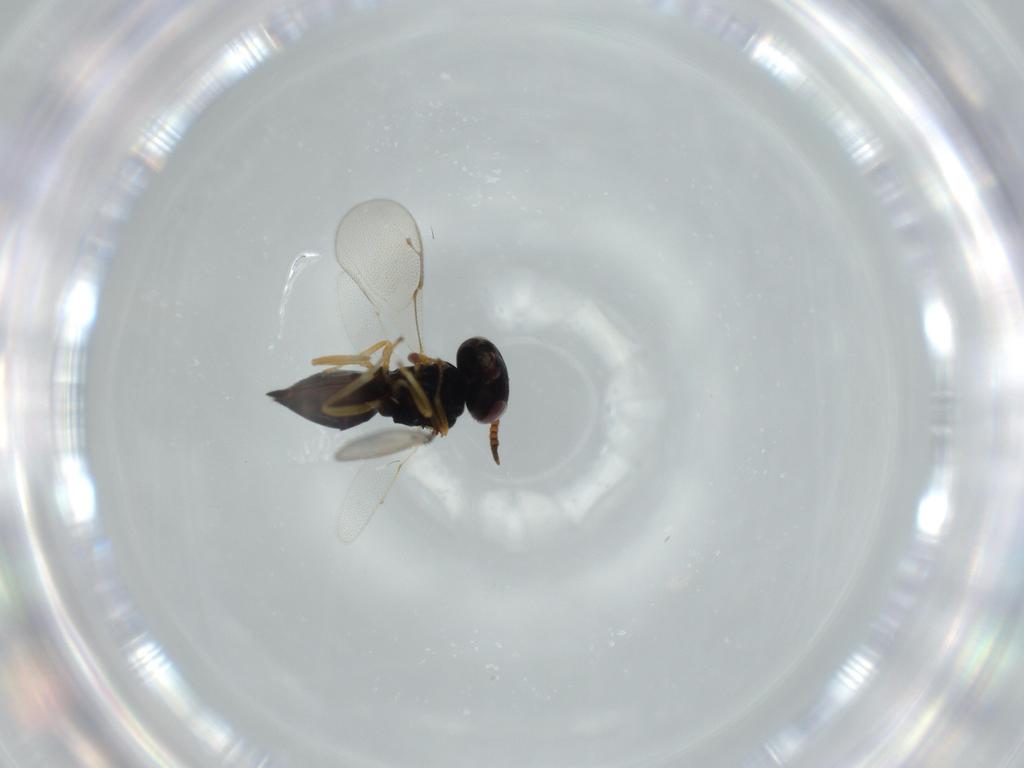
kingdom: Animalia
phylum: Arthropoda
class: Insecta
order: Hymenoptera
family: Pteromalidae
